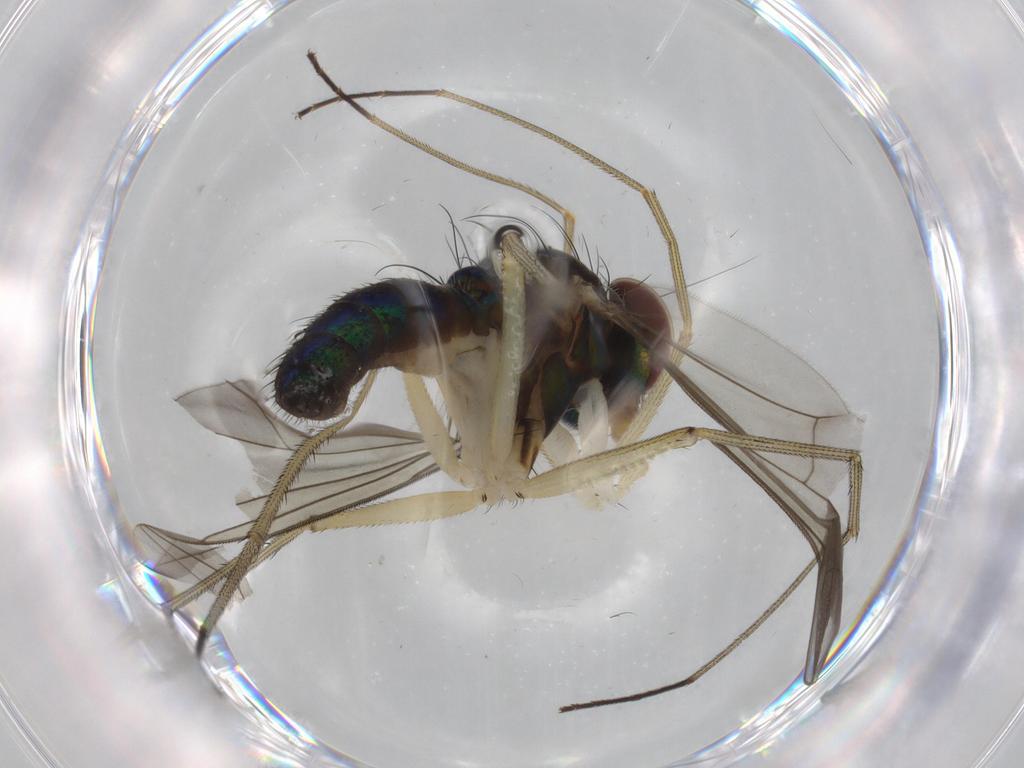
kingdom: Animalia
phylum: Arthropoda
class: Insecta
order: Diptera
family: Dolichopodidae
